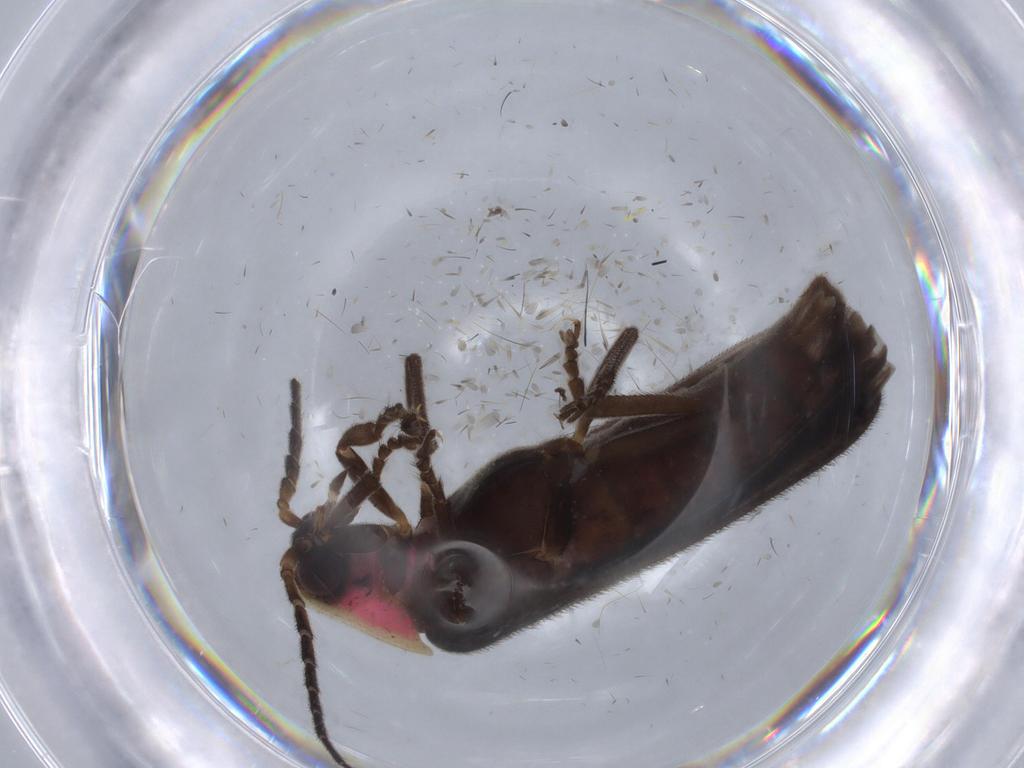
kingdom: Animalia
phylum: Arthropoda
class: Insecta
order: Coleoptera
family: Lampyridae
